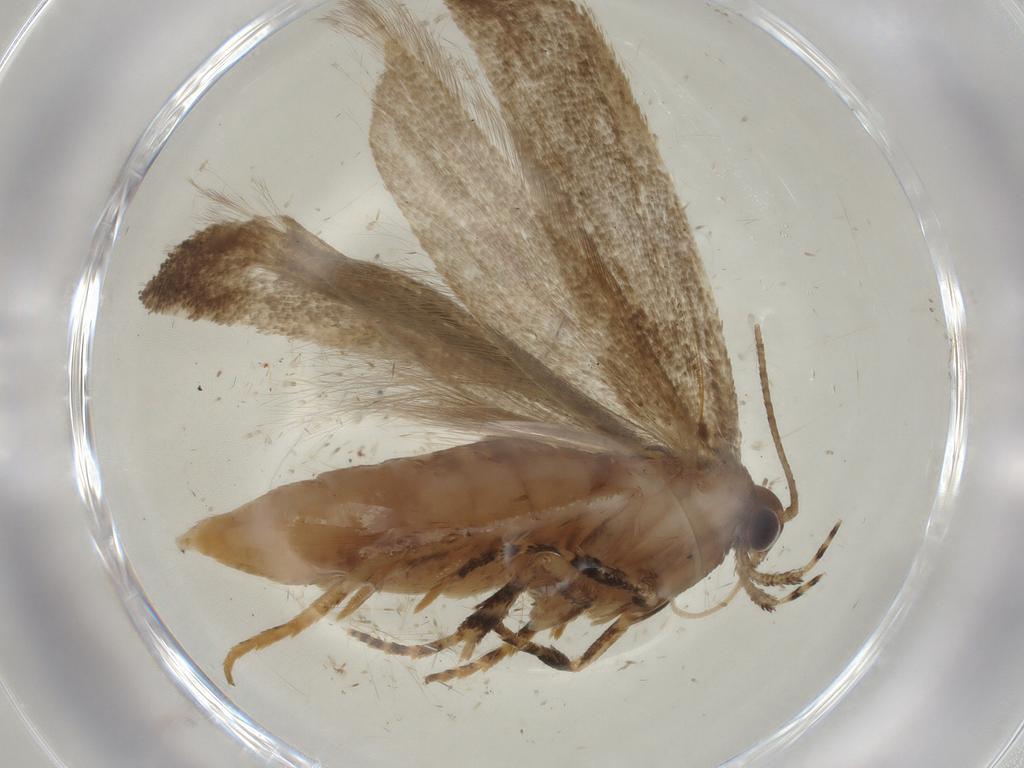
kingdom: Animalia
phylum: Arthropoda
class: Insecta
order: Lepidoptera
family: Gelechiidae
